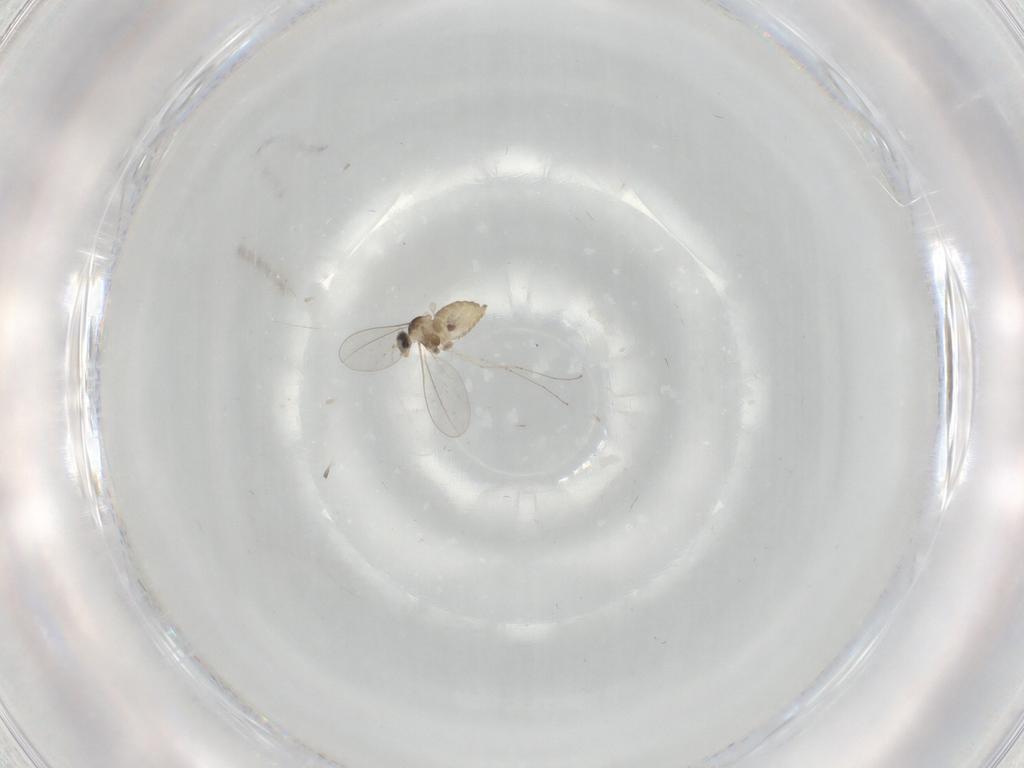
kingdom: Animalia
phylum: Arthropoda
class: Insecta
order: Diptera
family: Cecidomyiidae
